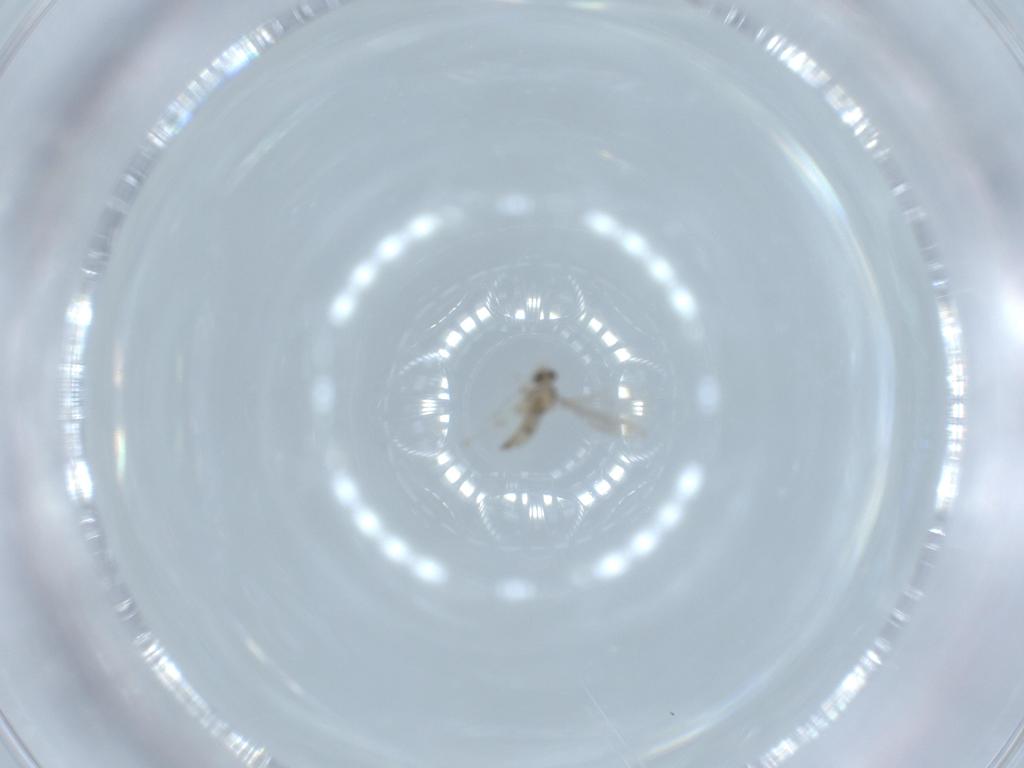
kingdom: Animalia
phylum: Arthropoda
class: Insecta
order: Diptera
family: Cecidomyiidae
